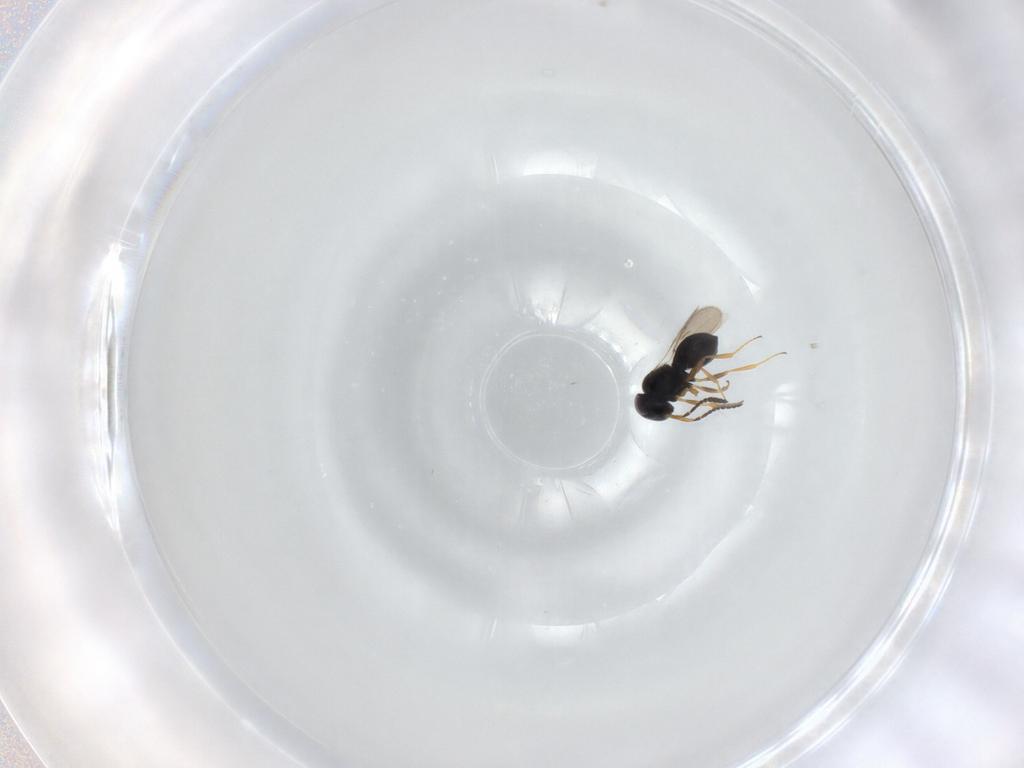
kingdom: Animalia
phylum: Arthropoda
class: Insecta
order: Hymenoptera
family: Scelionidae
